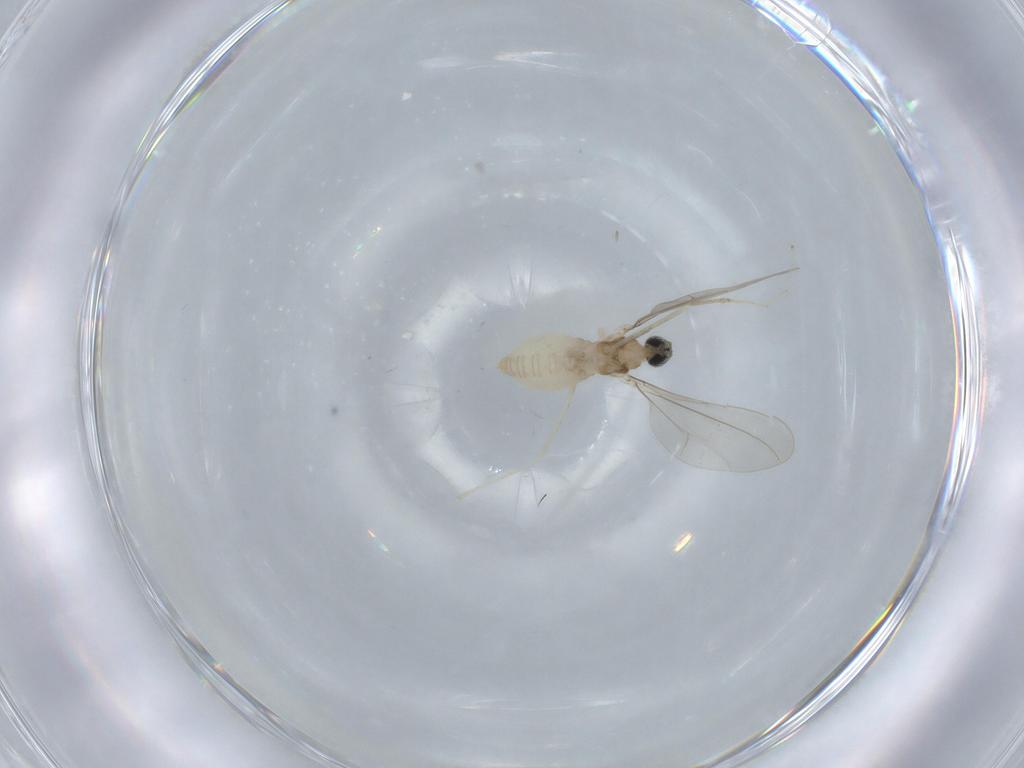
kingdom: Animalia
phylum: Arthropoda
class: Insecta
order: Diptera
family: Cecidomyiidae
